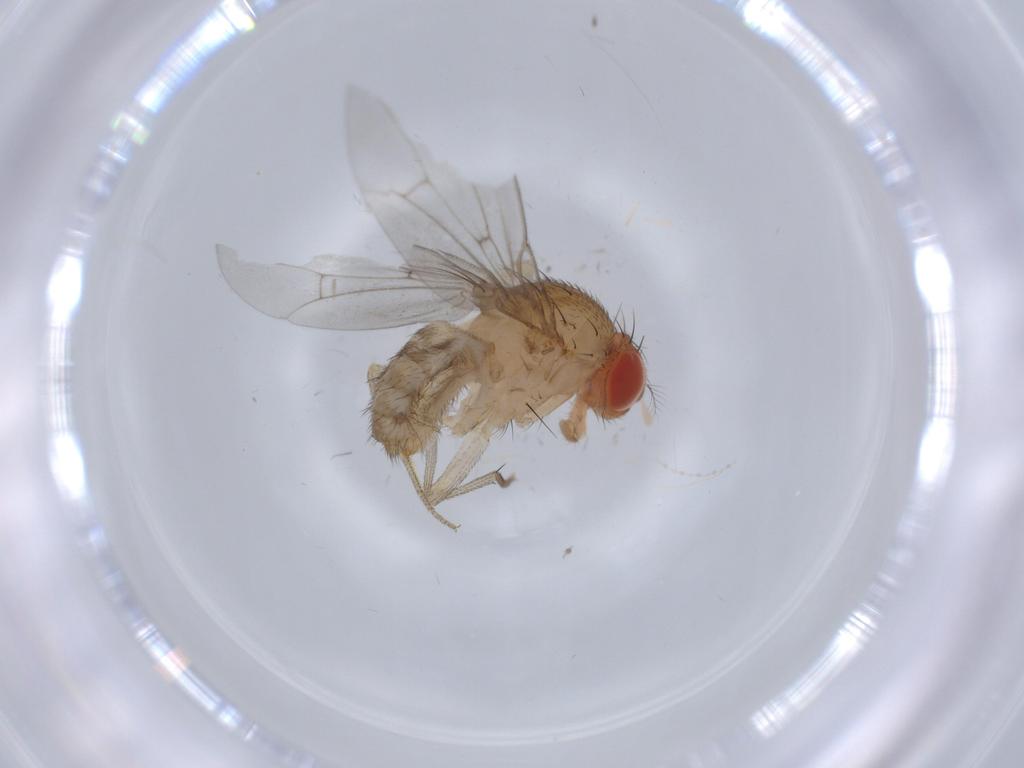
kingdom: Animalia
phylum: Arthropoda
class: Insecta
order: Diptera
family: Drosophilidae
